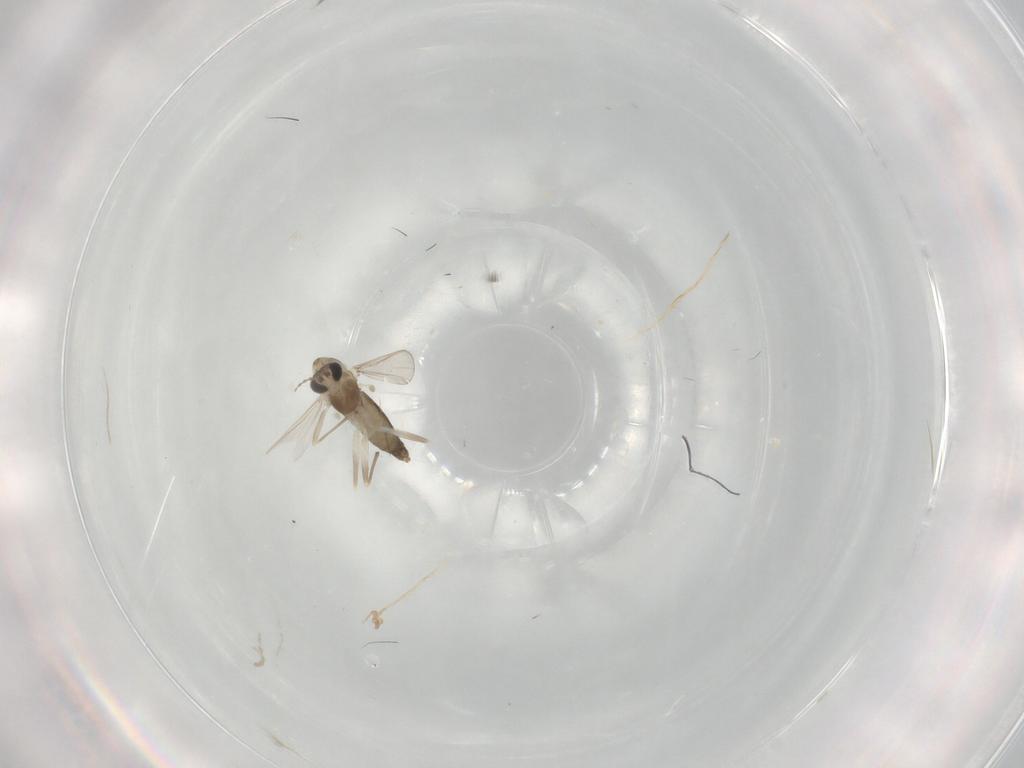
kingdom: Animalia
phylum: Arthropoda
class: Insecta
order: Diptera
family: Chironomidae
